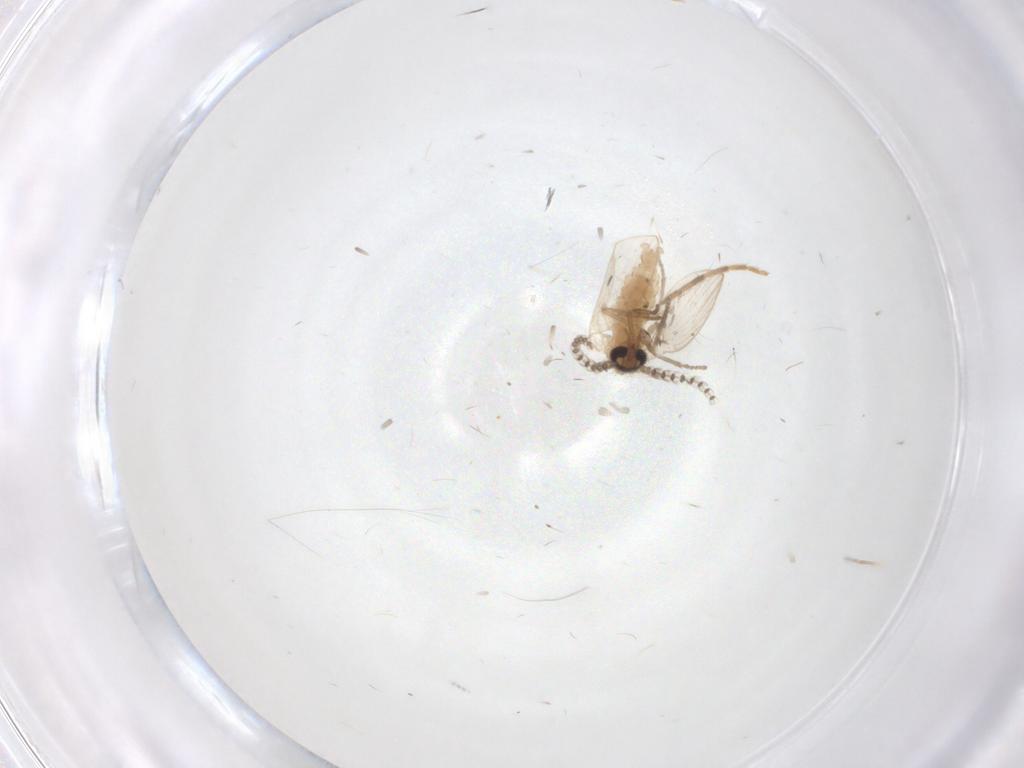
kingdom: Animalia
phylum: Arthropoda
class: Insecta
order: Diptera
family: Psychodidae
